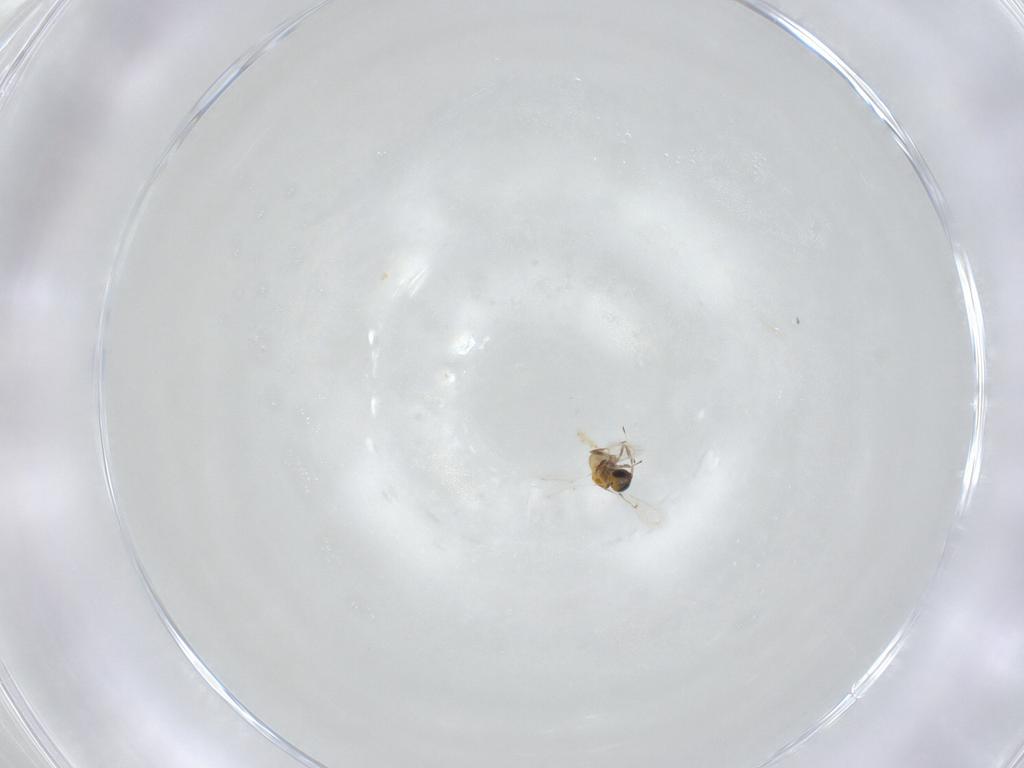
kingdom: Animalia
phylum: Arthropoda
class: Insecta
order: Hymenoptera
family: Trichogrammatidae
